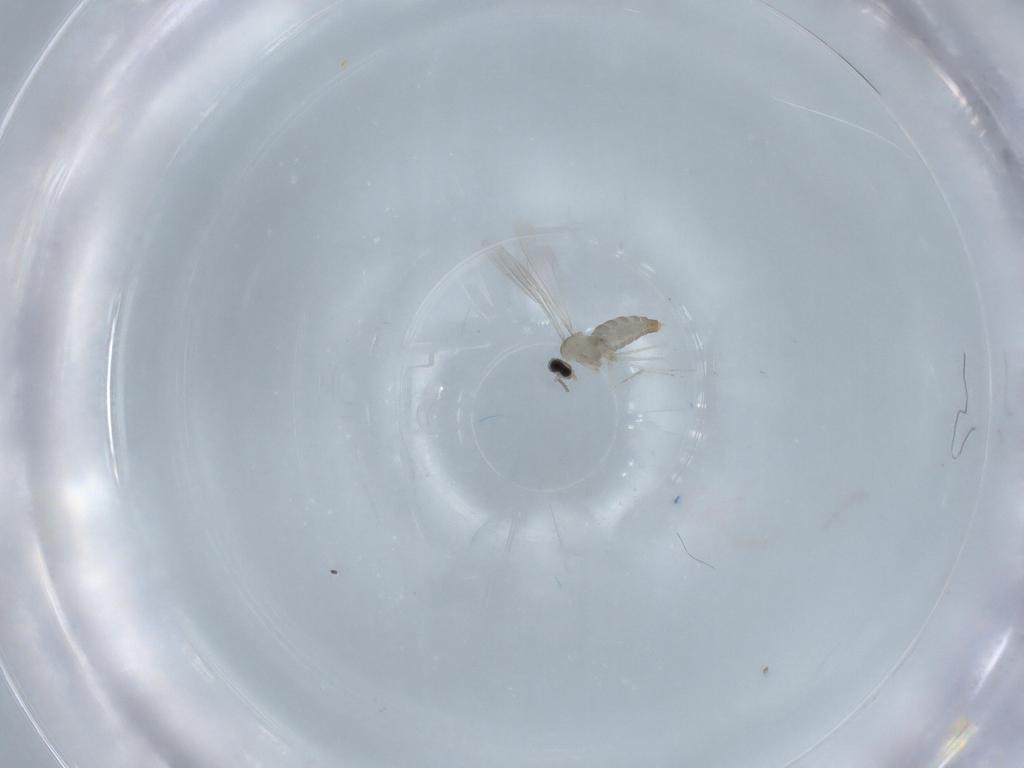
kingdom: Animalia
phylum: Arthropoda
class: Insecta
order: Diptera
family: Cecidomyiidae
